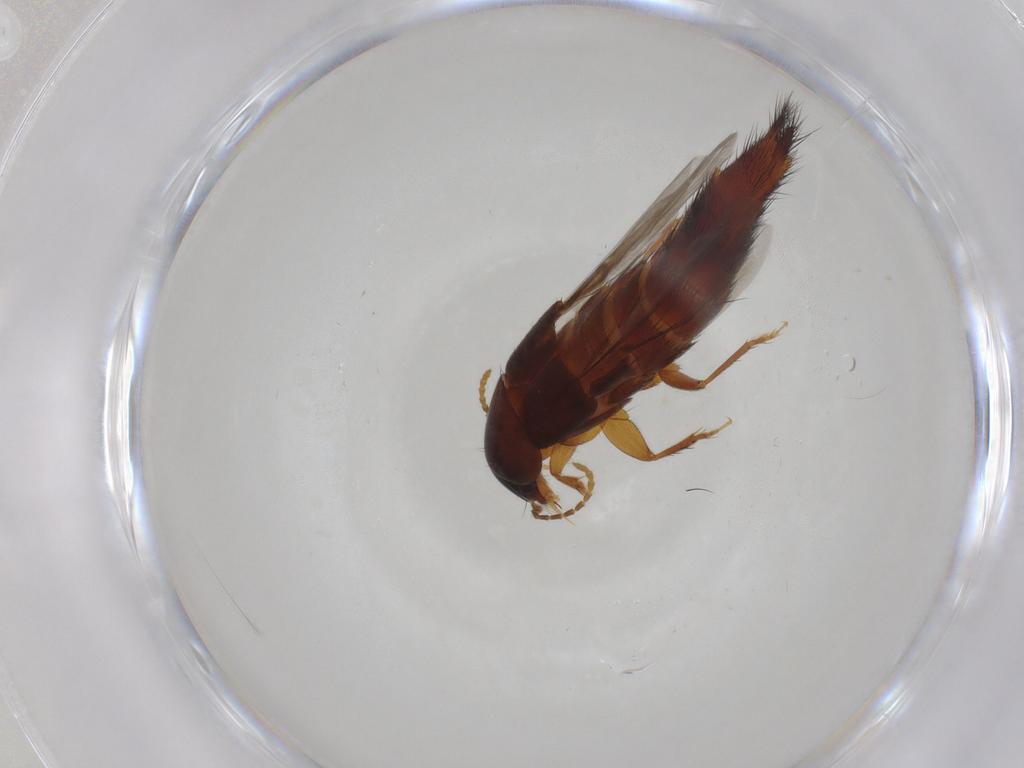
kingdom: Animalia
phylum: Arthropoda
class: Insecta
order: Coleoptera
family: Staphylinidae
